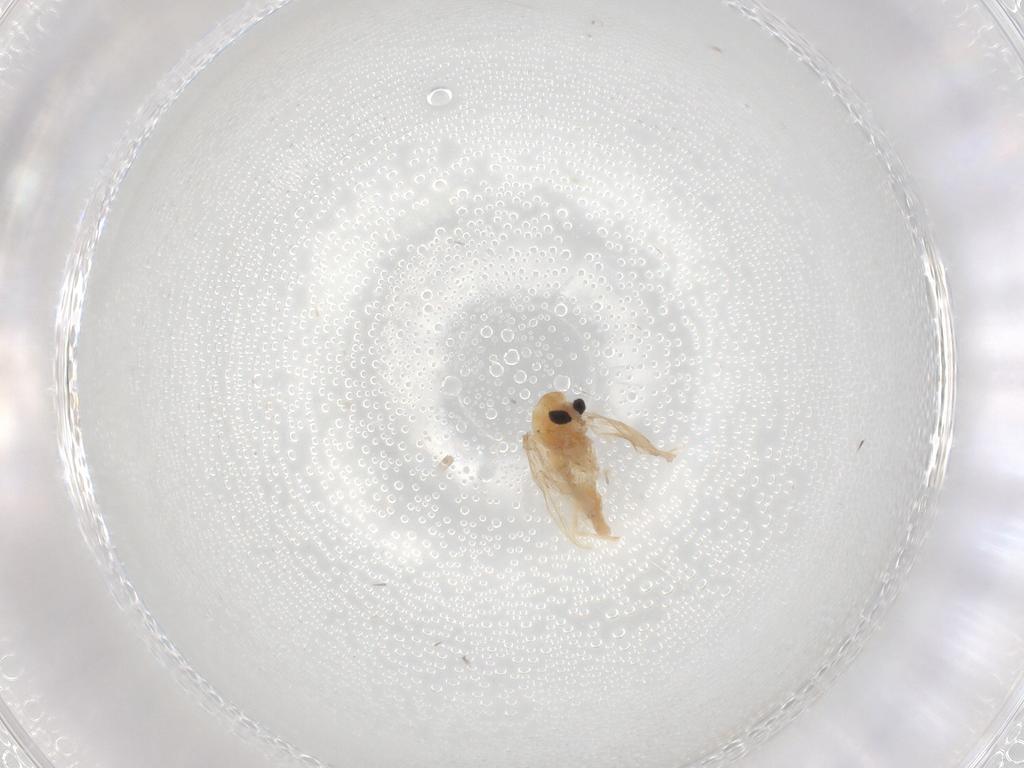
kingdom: Animalia
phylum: Arthropoda
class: Insecta
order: Diptera
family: Chironomidae
